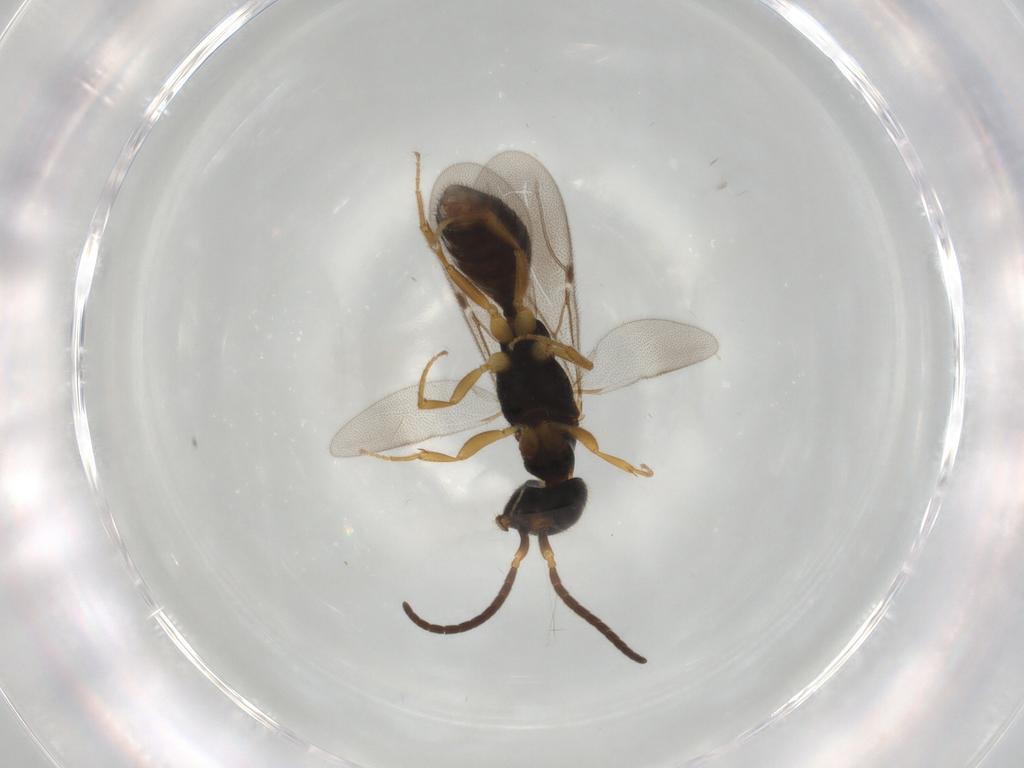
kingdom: Animalia
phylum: Arthropoda
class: Insecta
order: Hymenoptera
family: Bethylidae
